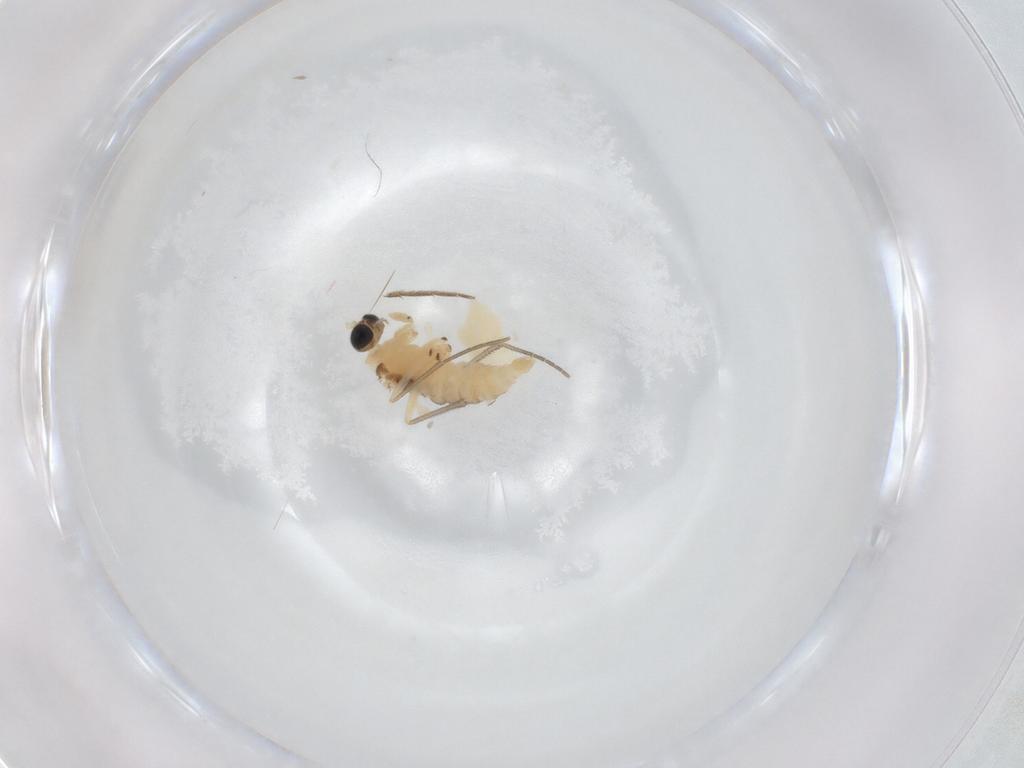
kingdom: Animalia
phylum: Arthropoda
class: Insecta
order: Diptera
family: Sciaridae
